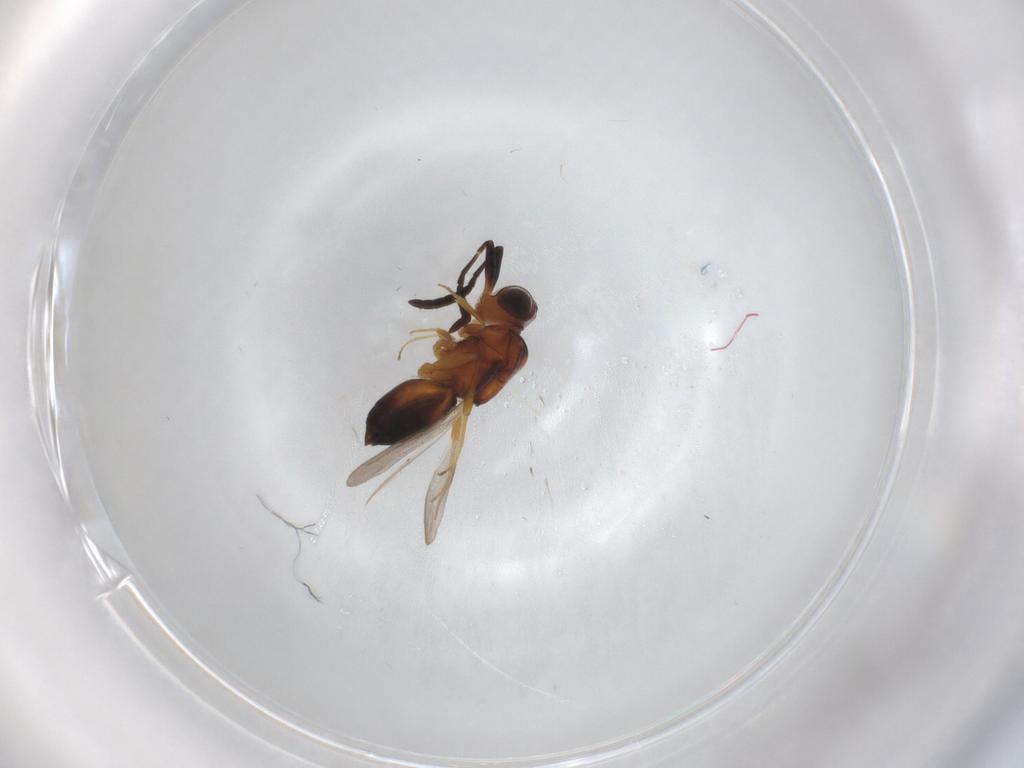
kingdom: Animalia
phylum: Arthropoda
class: Insecta
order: Hymenoptera
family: Ceraphronidae
